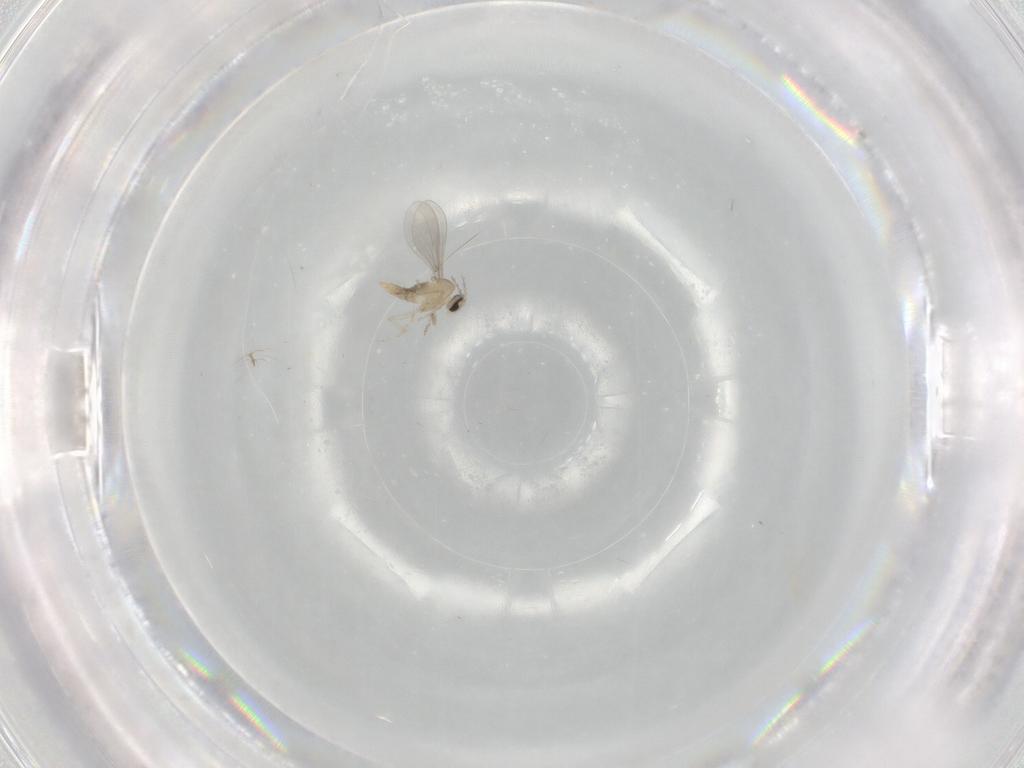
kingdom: Animalia
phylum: Arthropoda
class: Insecta
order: Diptera
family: Cecidomyiidae
